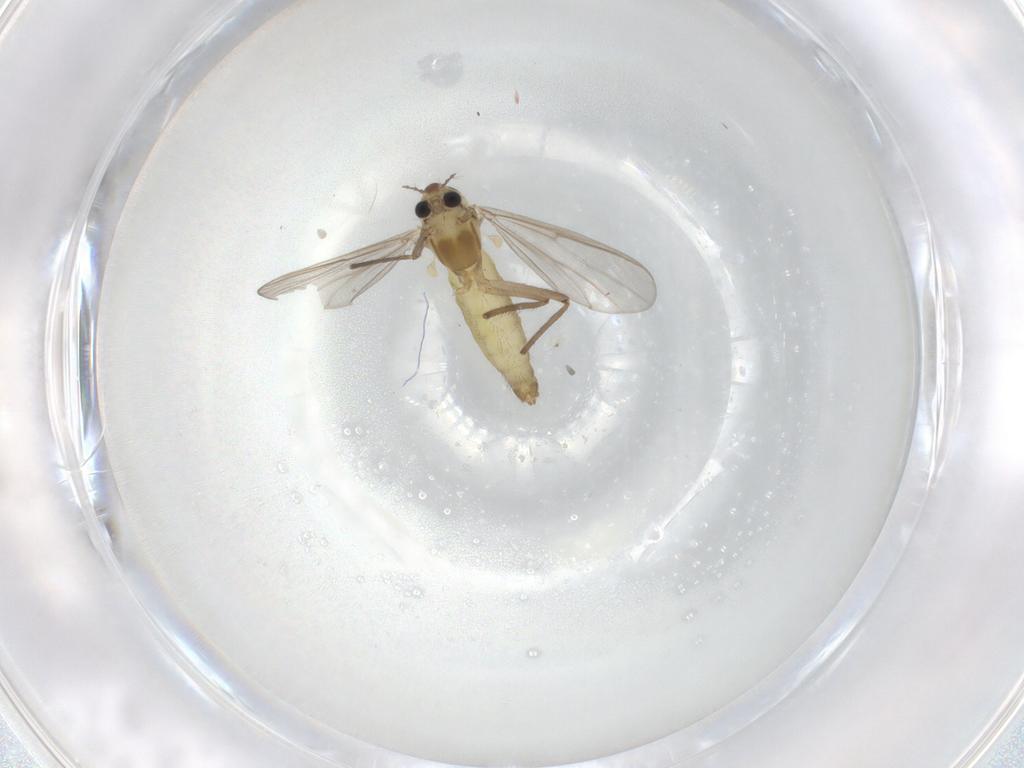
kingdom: Animalia
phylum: Arthropoda
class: Insecta
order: Diptera
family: Chironomidae
